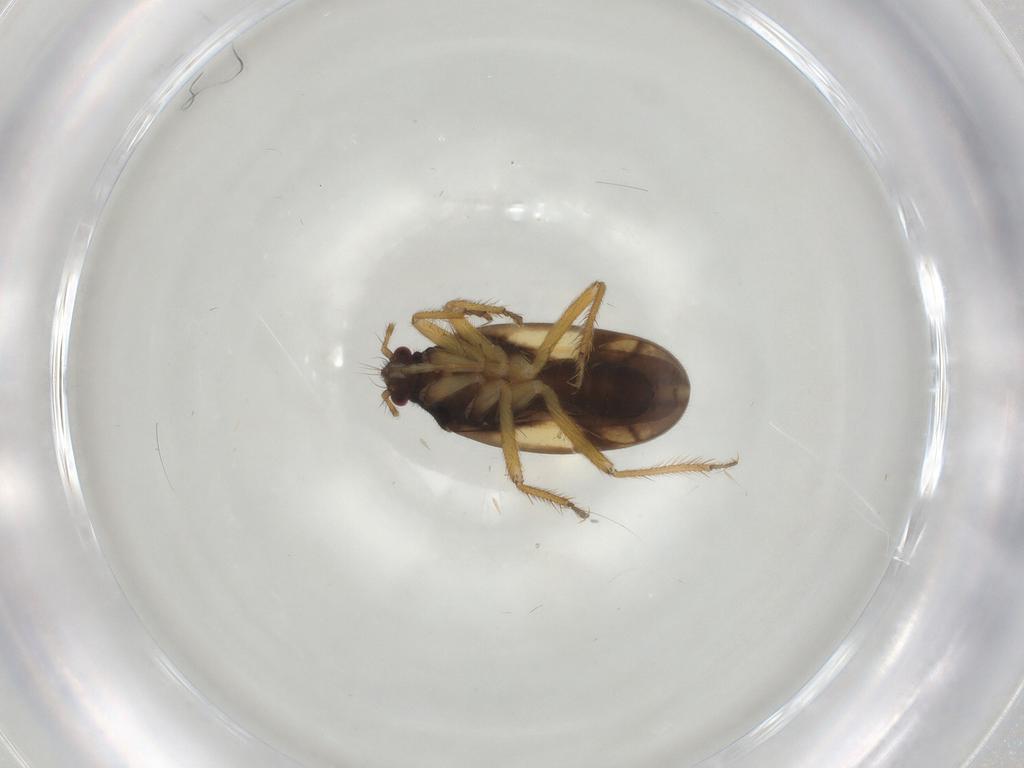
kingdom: Animalia
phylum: Arthropoda
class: Insecta
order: Hemiptera
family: Ceratocombidae
